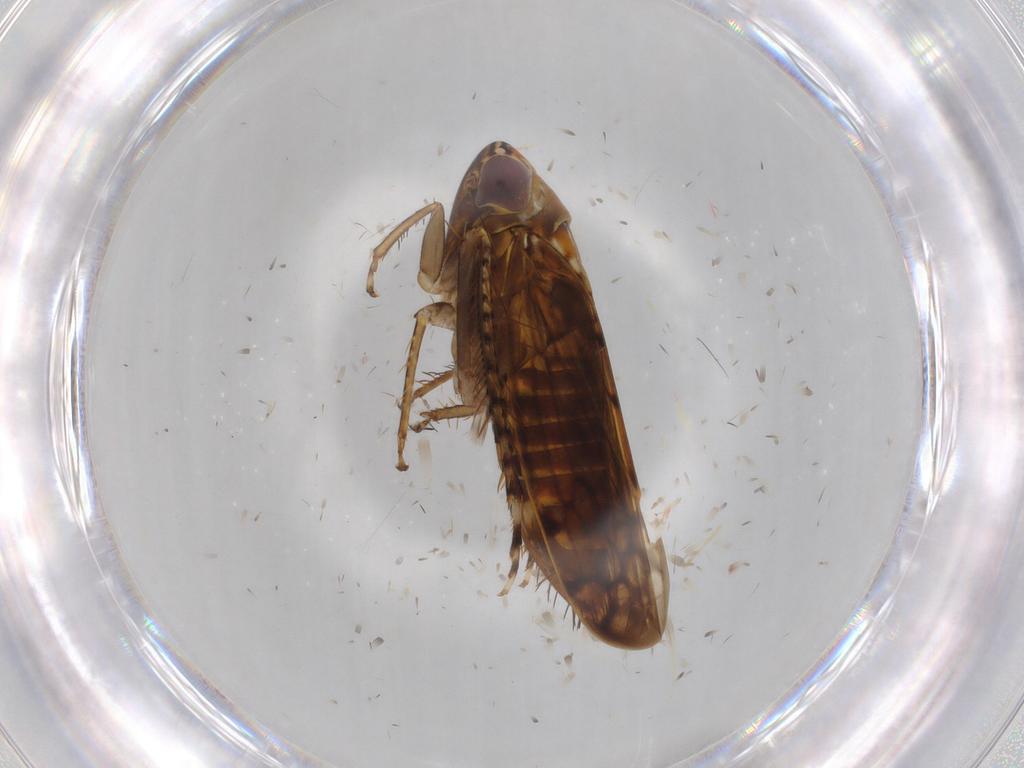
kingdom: Animalia
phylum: Arthropoda
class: Insecta
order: Hemiptera
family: Cicadellidae
